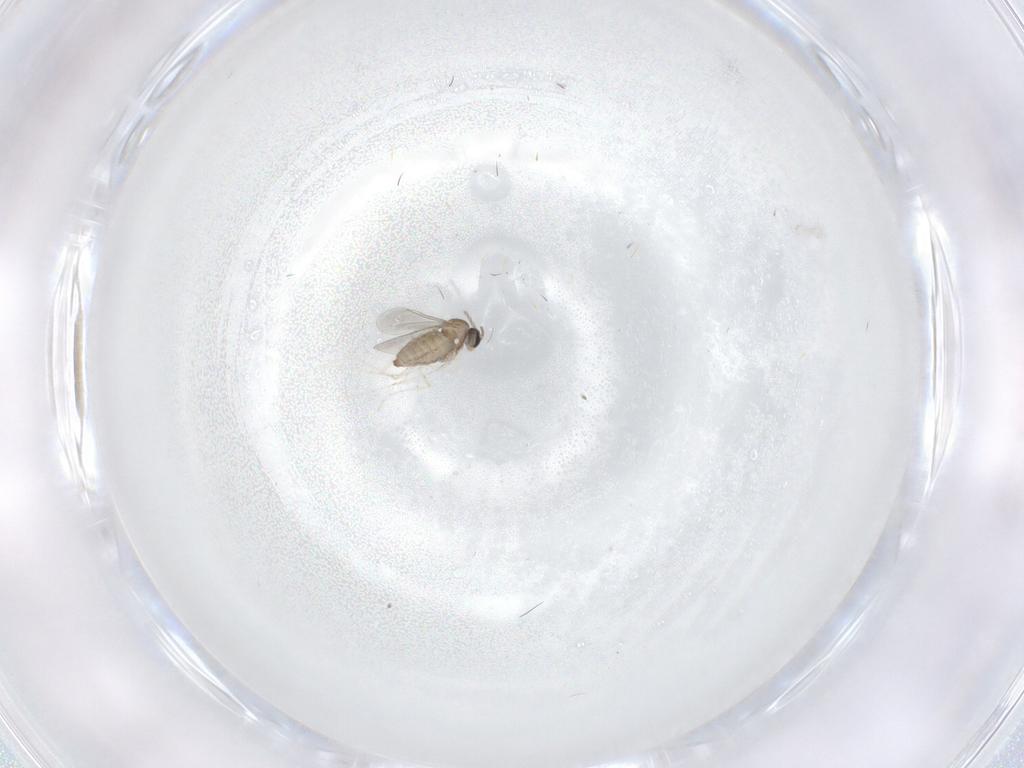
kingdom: Animalia
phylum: Arthropoda
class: Insecta
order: Diptera
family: Cecidomyiidae
